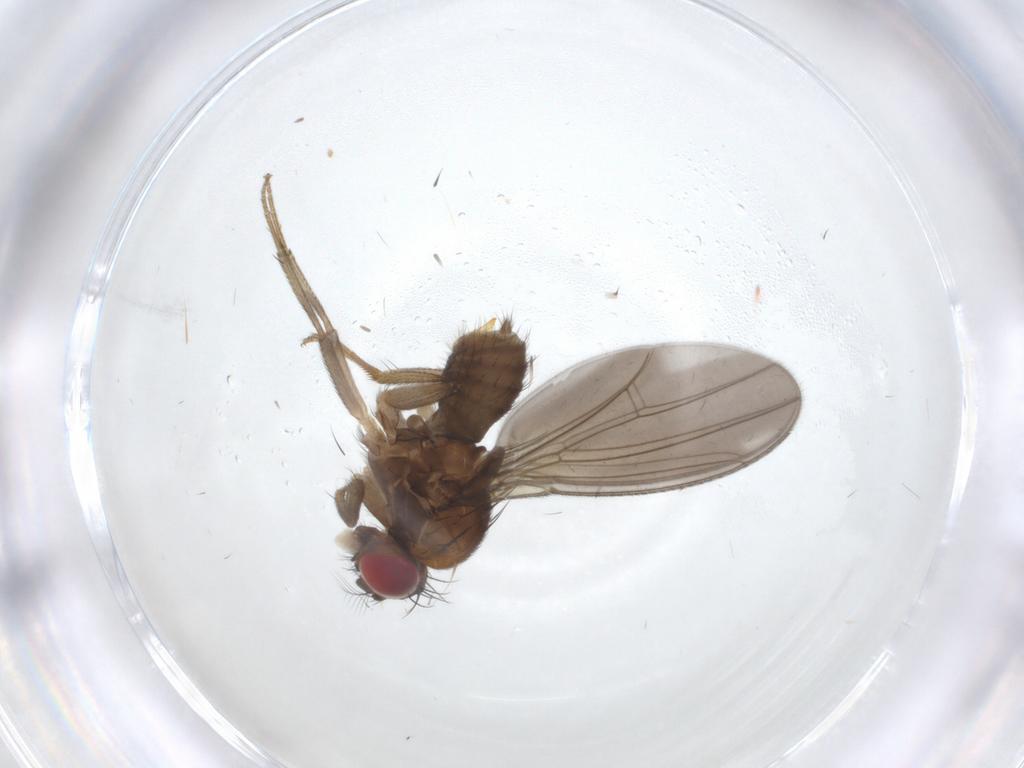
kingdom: Animalia
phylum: Arthropoda
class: Insecta
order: Diptera
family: Drosophilidae
